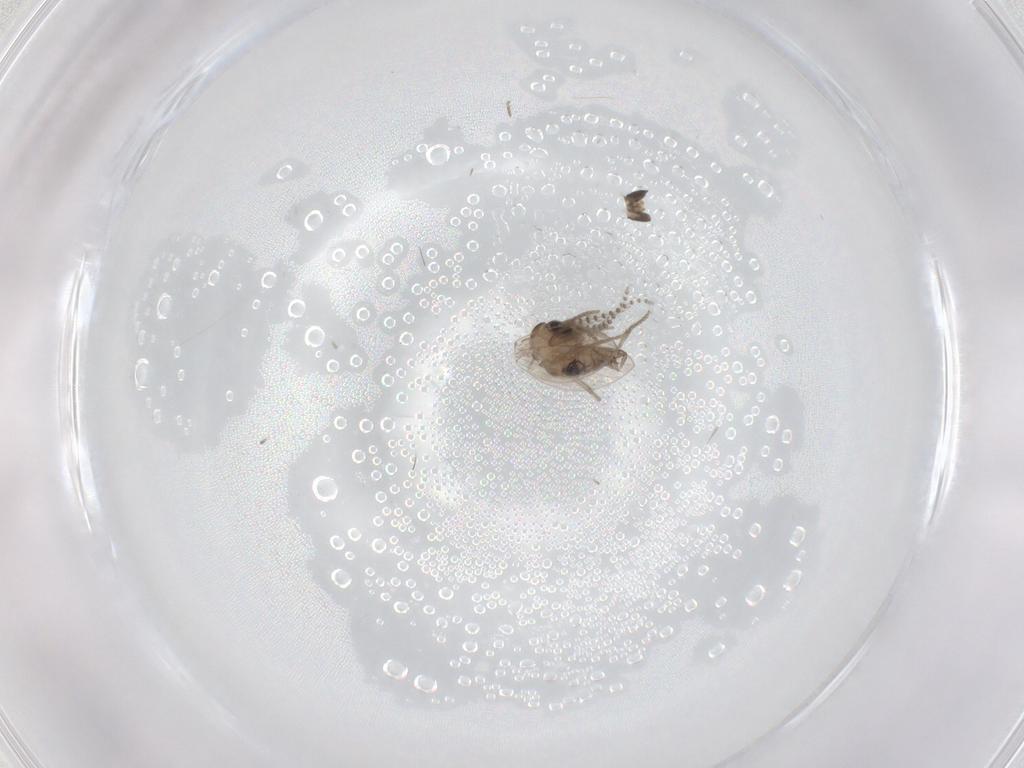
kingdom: Animalia
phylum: Arthropoda
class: Insecta
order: Diptera
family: Psychodidae
